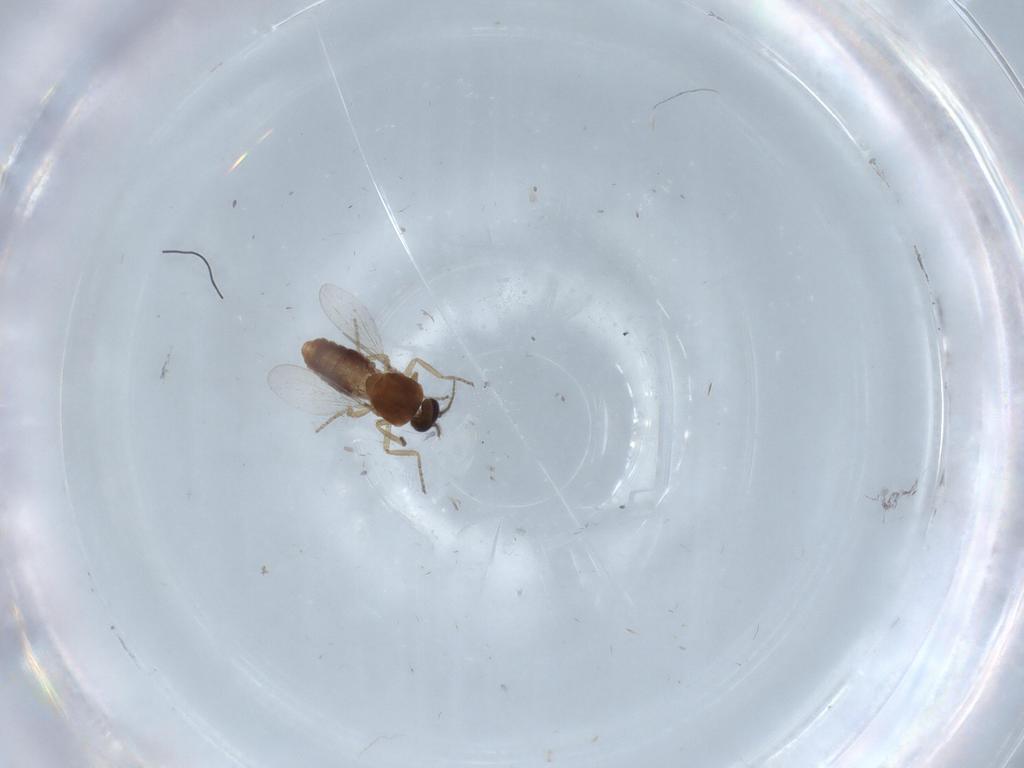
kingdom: Animalia
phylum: Arthropoda
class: Insecta
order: Diptera
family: Ceratopogonidae
